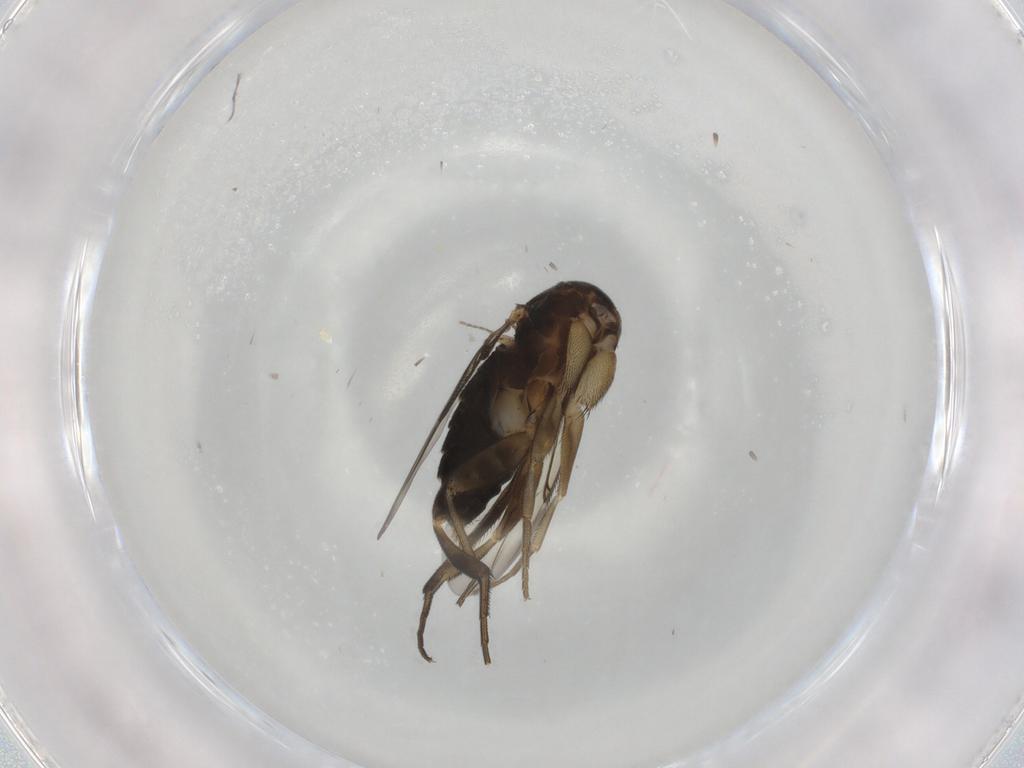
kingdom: Animalia
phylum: Arthropoda
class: Insecta
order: Diptera
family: Phoridae
